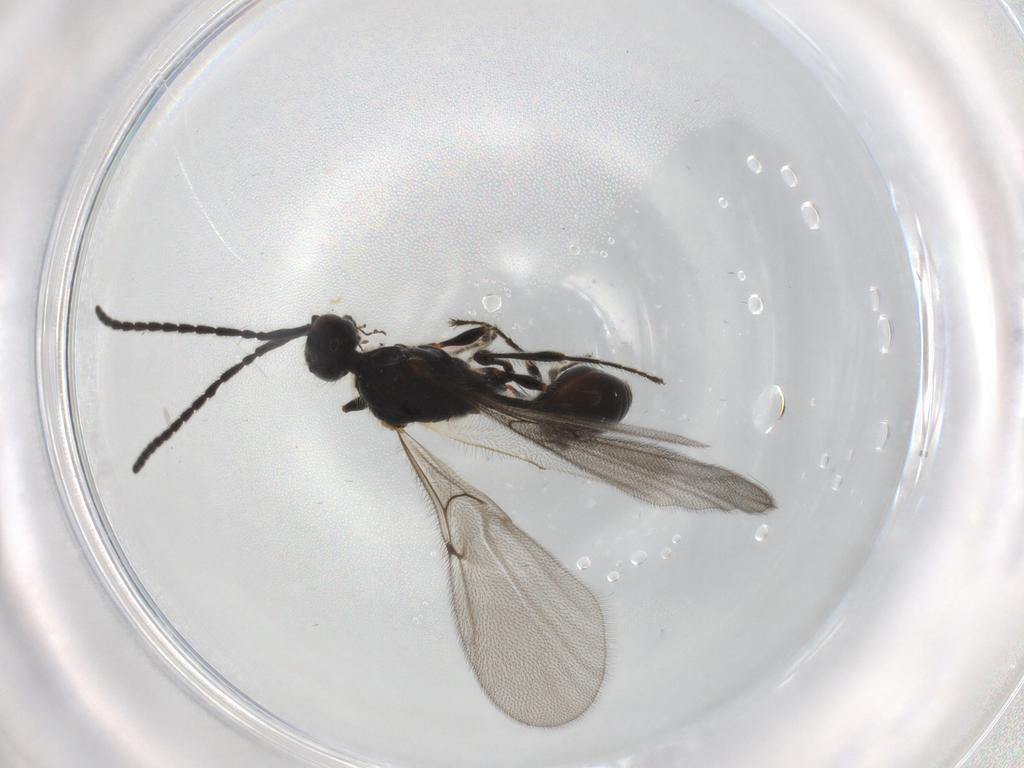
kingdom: Animalia
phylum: Arthropoda
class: Insecta
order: Hymenoptera
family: Diapriidae
